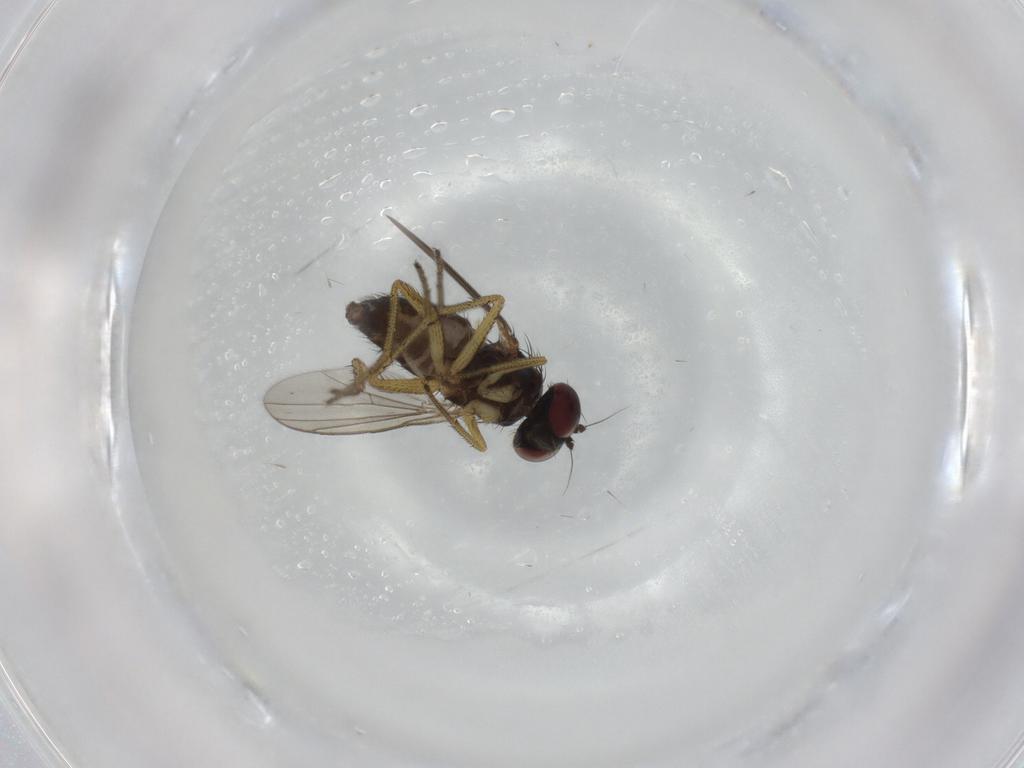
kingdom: Animalia
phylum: Arthropoda
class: Insecta
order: Diptera
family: Dolichopodidae
